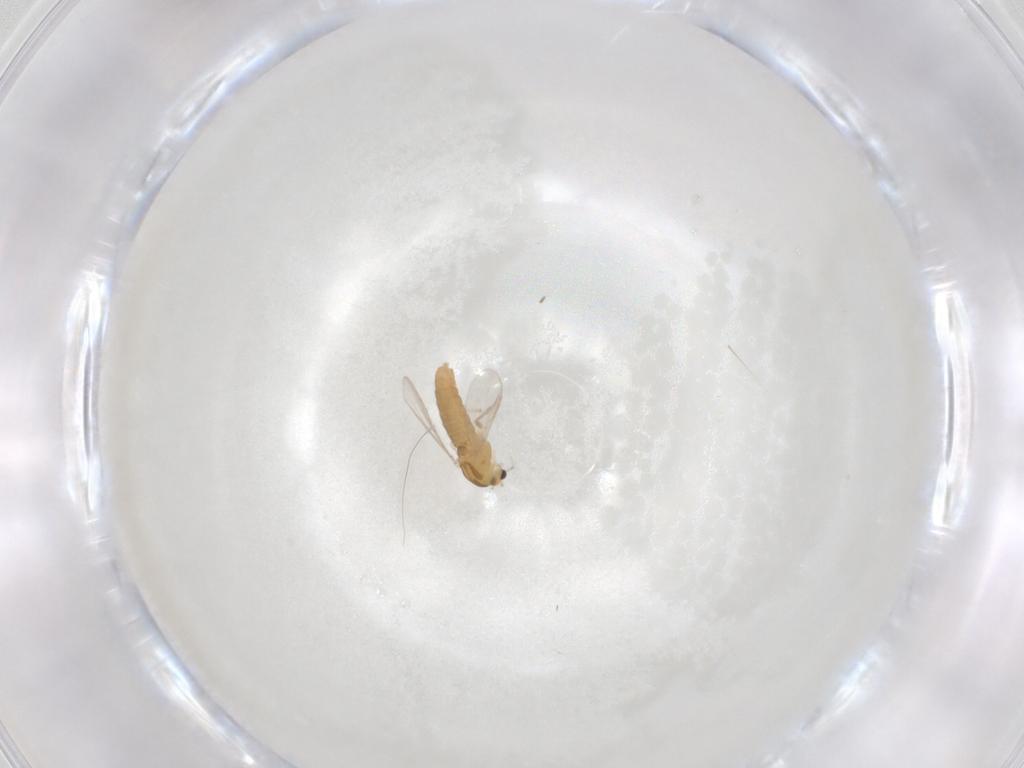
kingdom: Animalia
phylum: Arthropoda
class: Insecta
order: Diptera
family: Chironomidae
